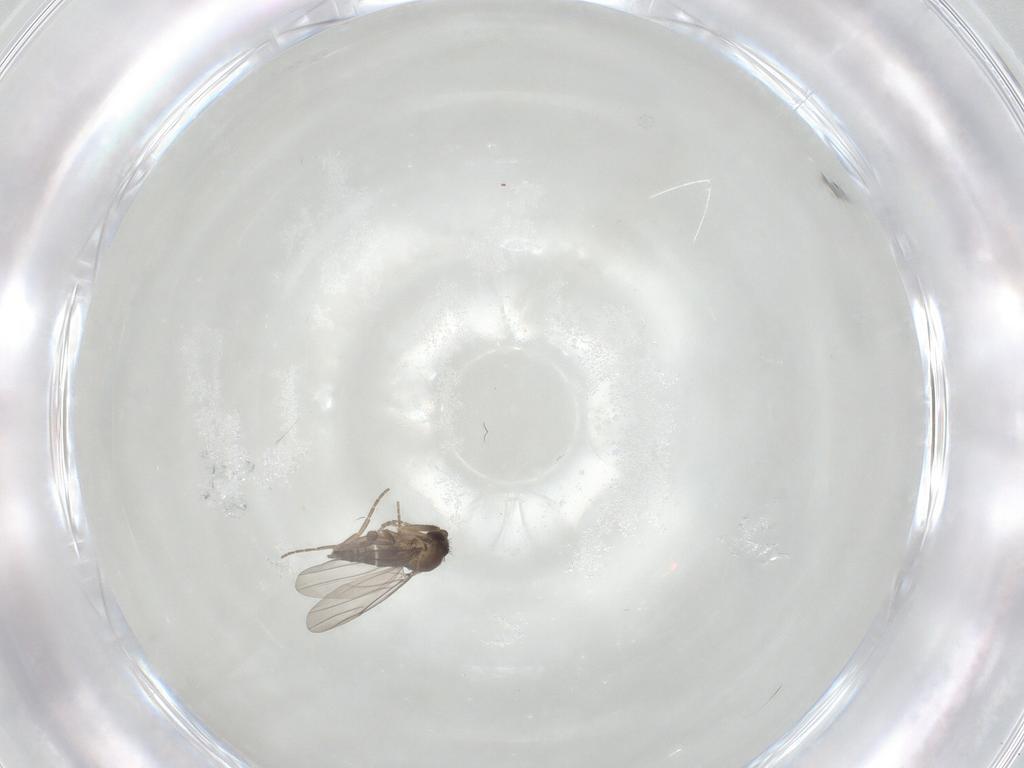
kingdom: Animalia
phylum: Arthropoda
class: Insecta
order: Diptera
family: Phoridae
